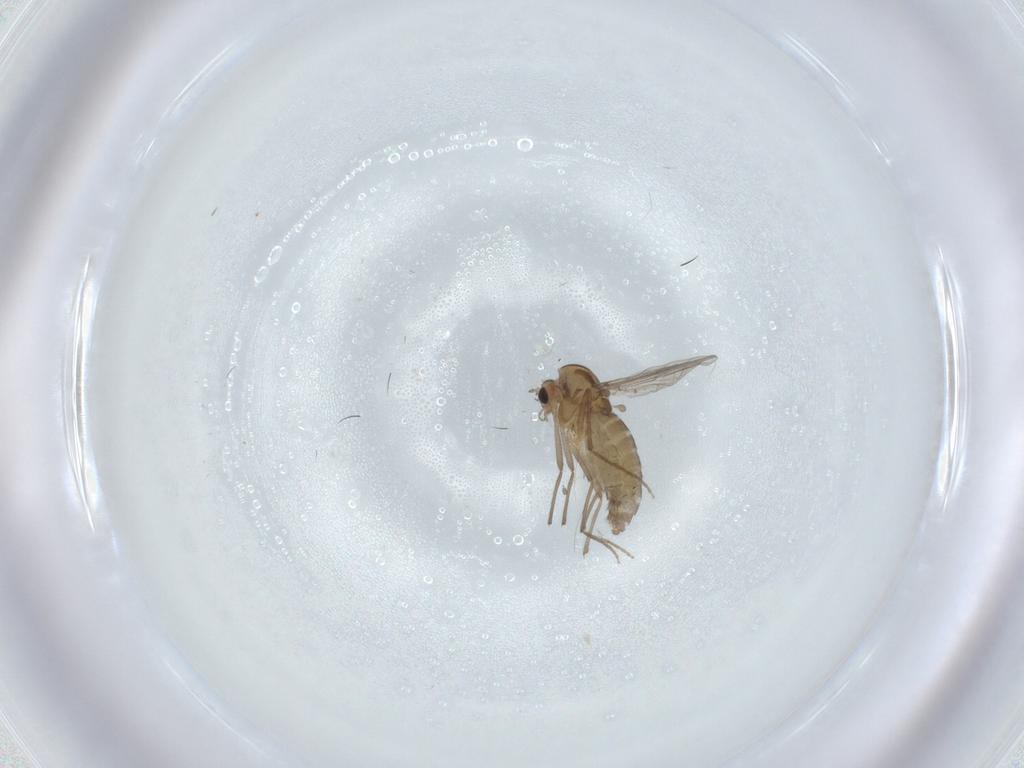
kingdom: Animalia
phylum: Arthropoda
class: Insecta
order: Diptera
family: Chironomidae
